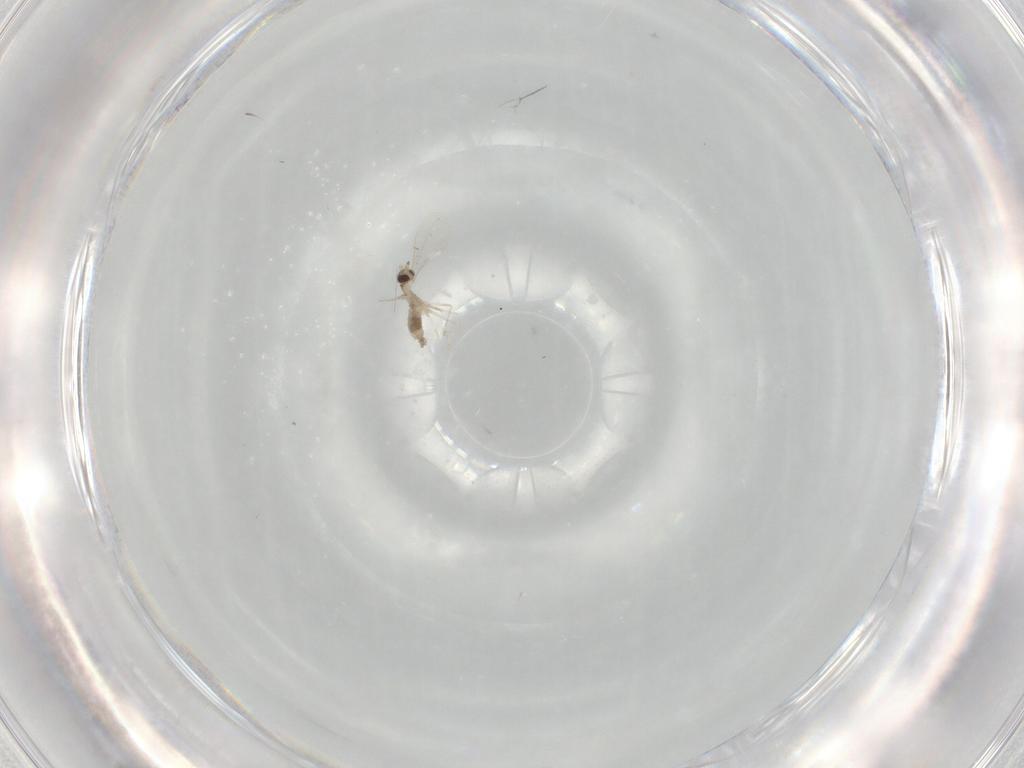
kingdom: Animalia
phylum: Arthropoda
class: Insecta
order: Diptera
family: Cecidomyiidae
